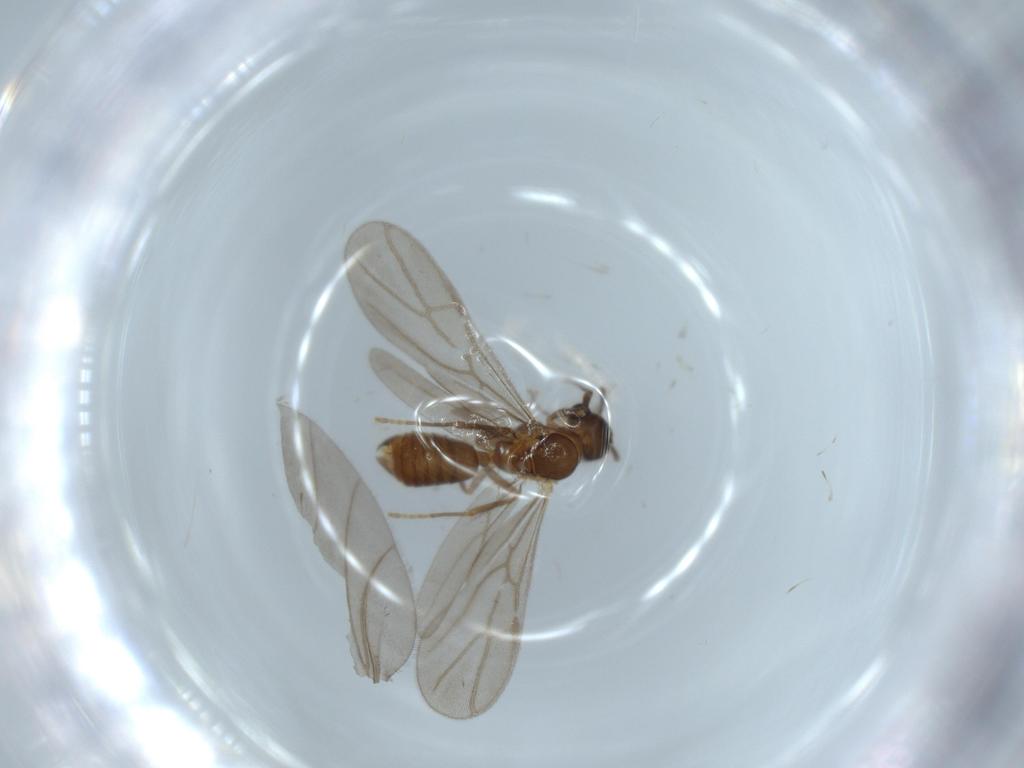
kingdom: Animalia
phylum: Arthropoda
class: Insecta
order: Hymenoptera
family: Formicidae
